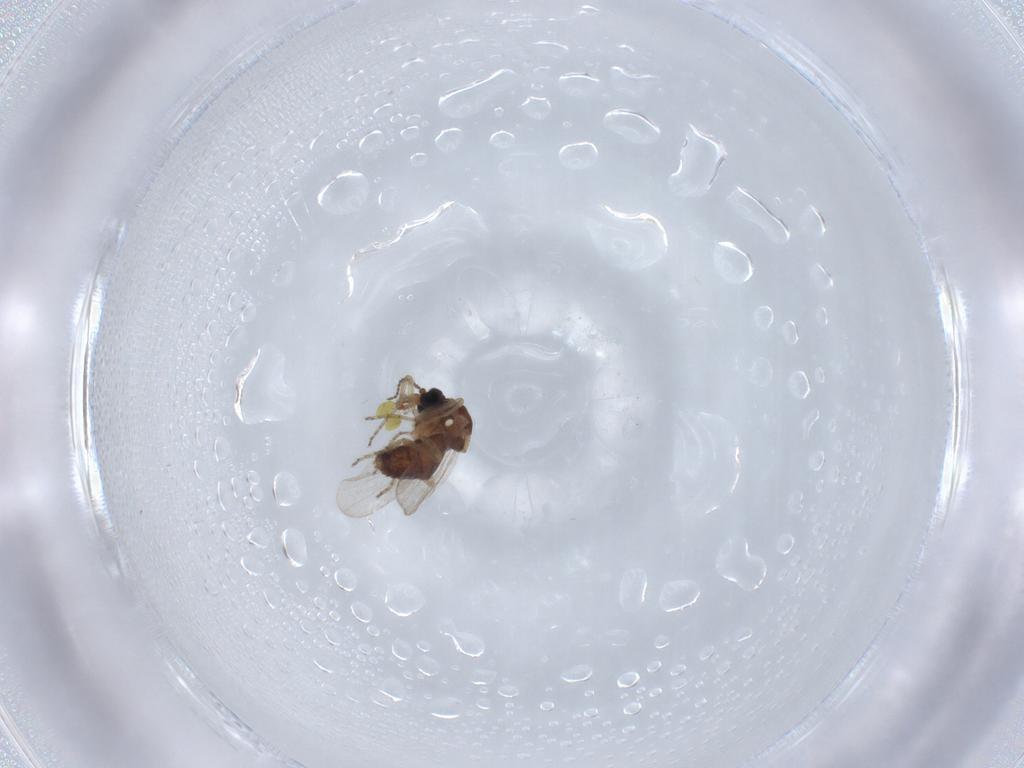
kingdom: Animalia
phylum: Arthropoda
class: Insecta
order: Diptera
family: Ceratopogonidae
